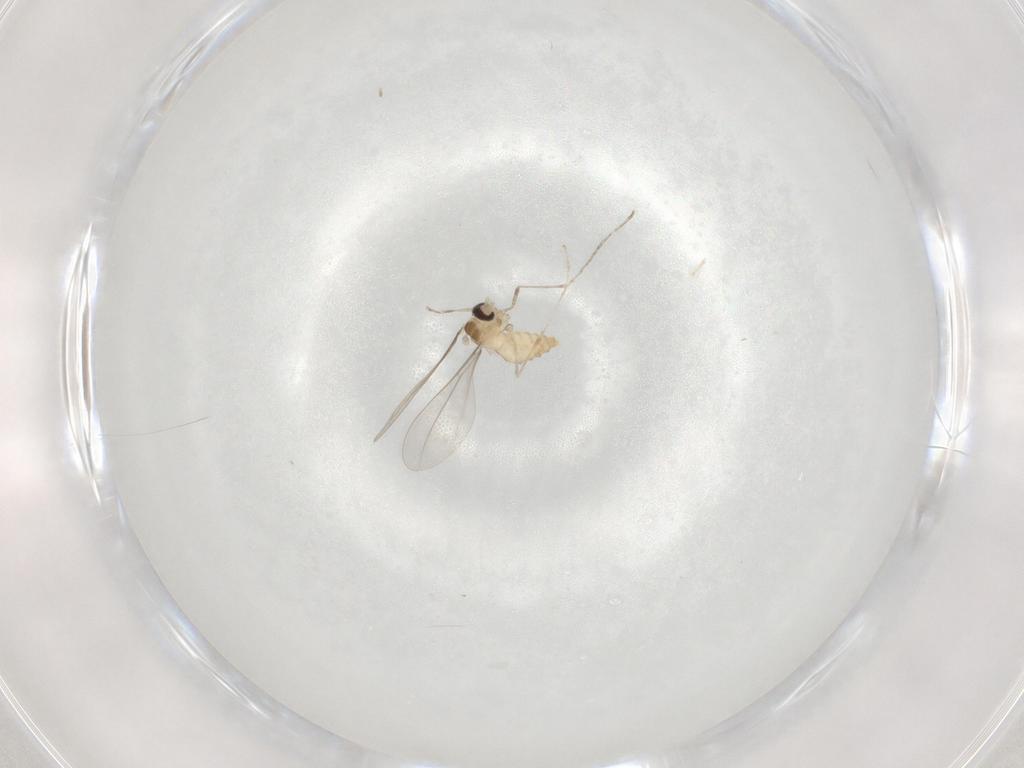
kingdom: Animalia
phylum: Arthropoda
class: Insecta
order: Diptera
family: Cecidomyiidae
